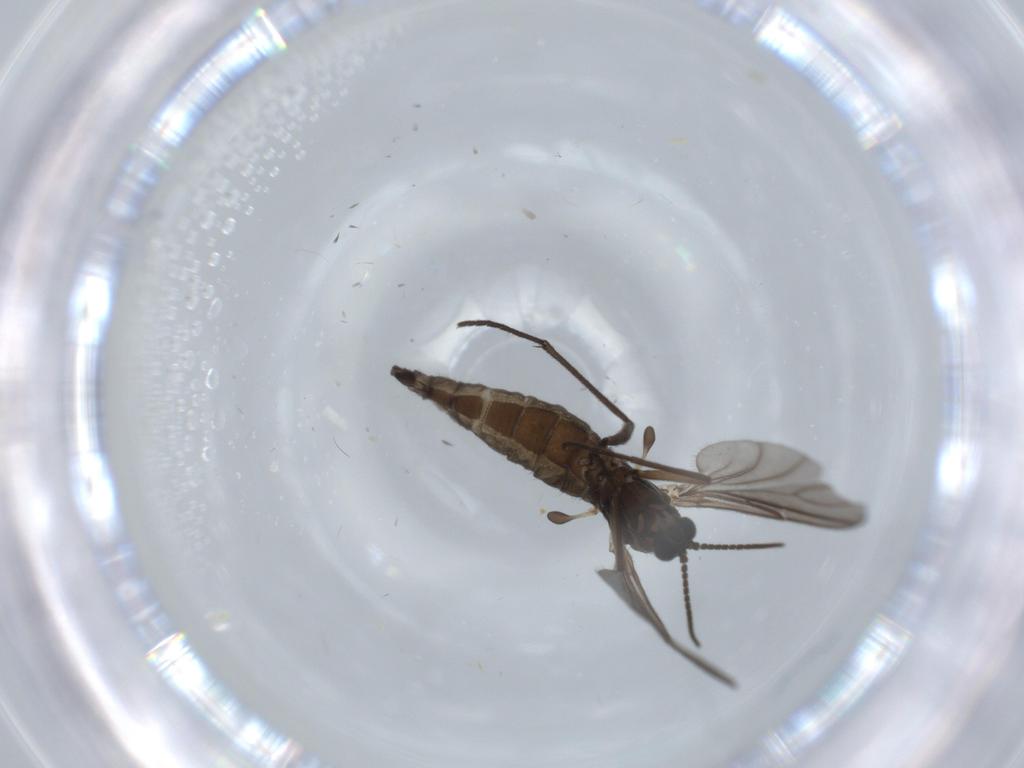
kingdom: Animalia
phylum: Arthropoda
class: Insecta
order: Diptera
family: Sciaridae
